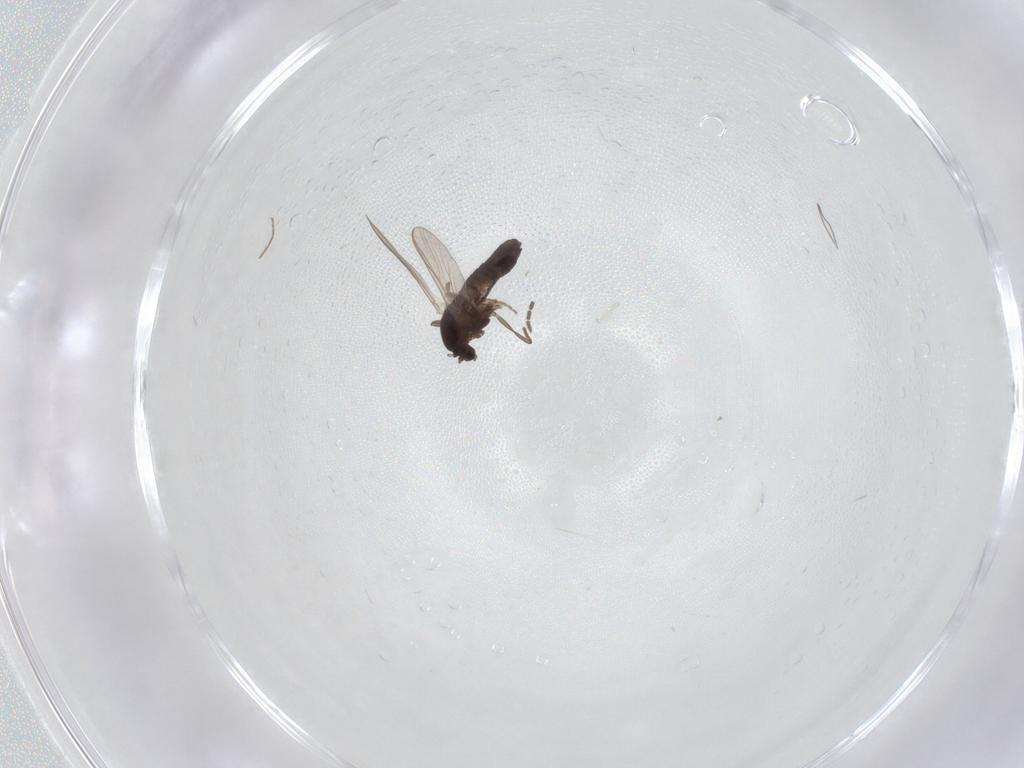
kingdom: Animalia
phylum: Arthropoda
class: Insecta
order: Diptera
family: Chironomidae
